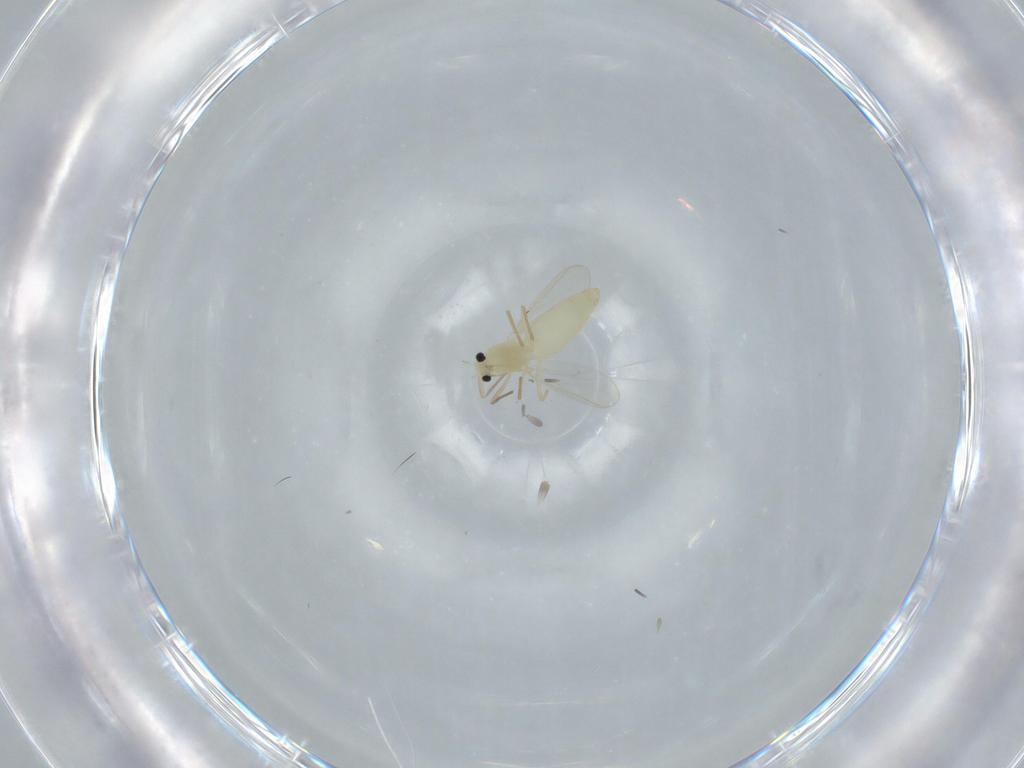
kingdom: Animalia
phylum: Arthropoda
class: Insecta
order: Diptera
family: Chironomidae
